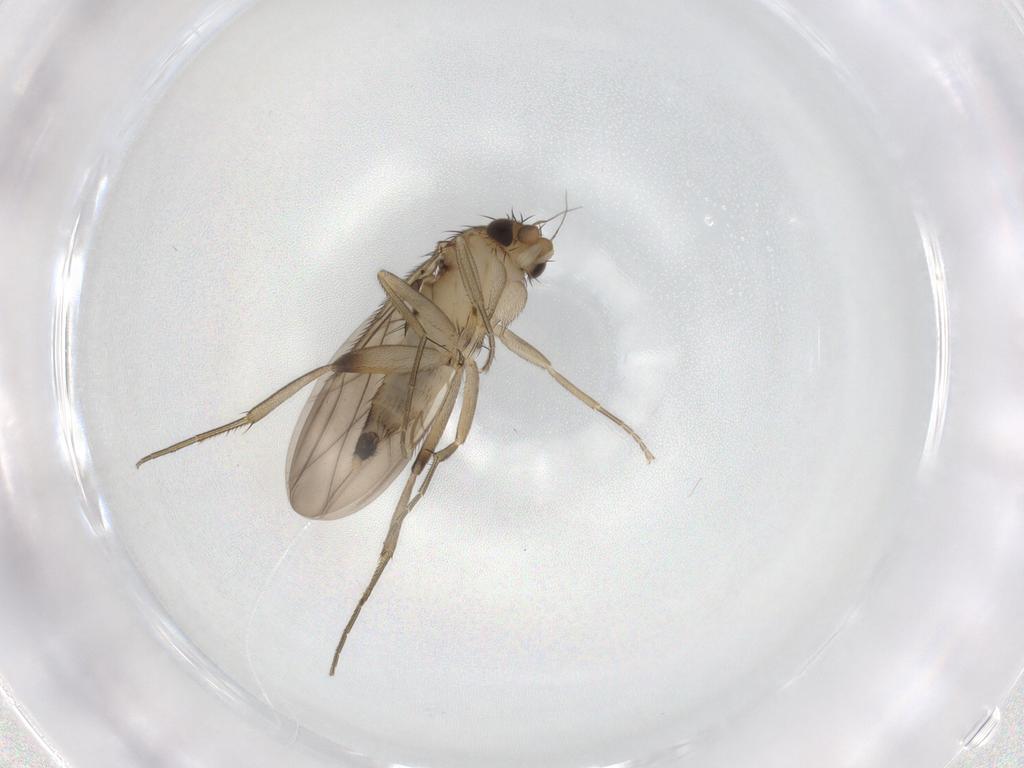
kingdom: Animalia
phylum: Arthropoda
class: Insecta
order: Diptera
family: Phoridae
